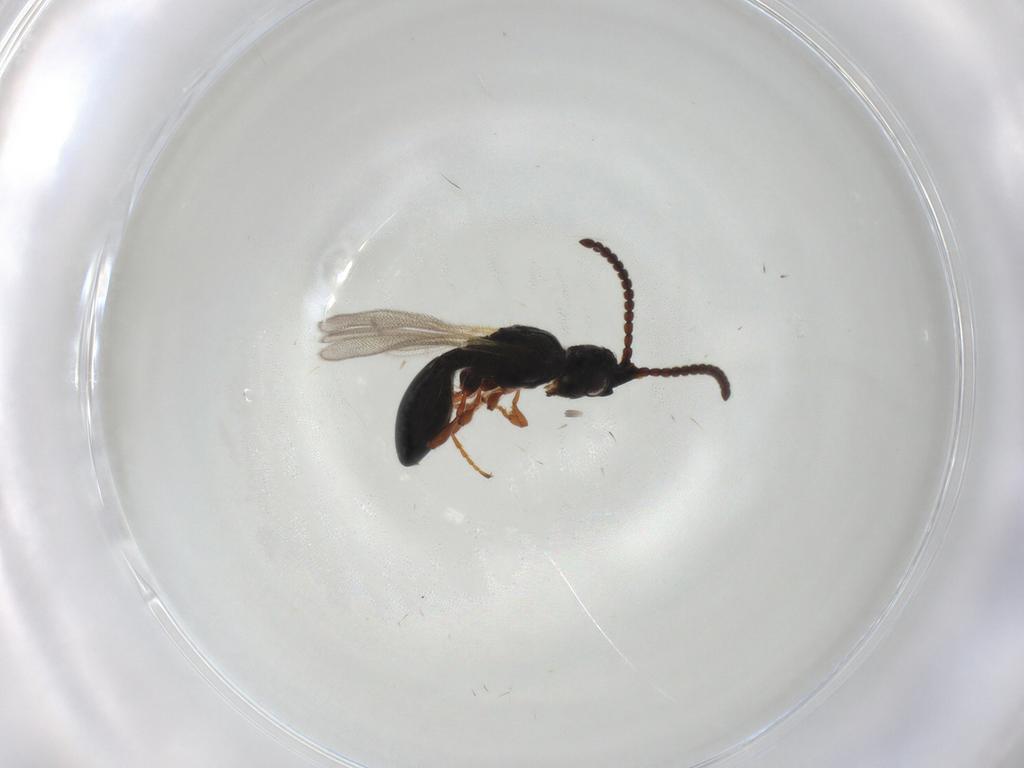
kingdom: Animalia
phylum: Arthropoda
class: Insecta
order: Hymenoptera
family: Diapriidae
